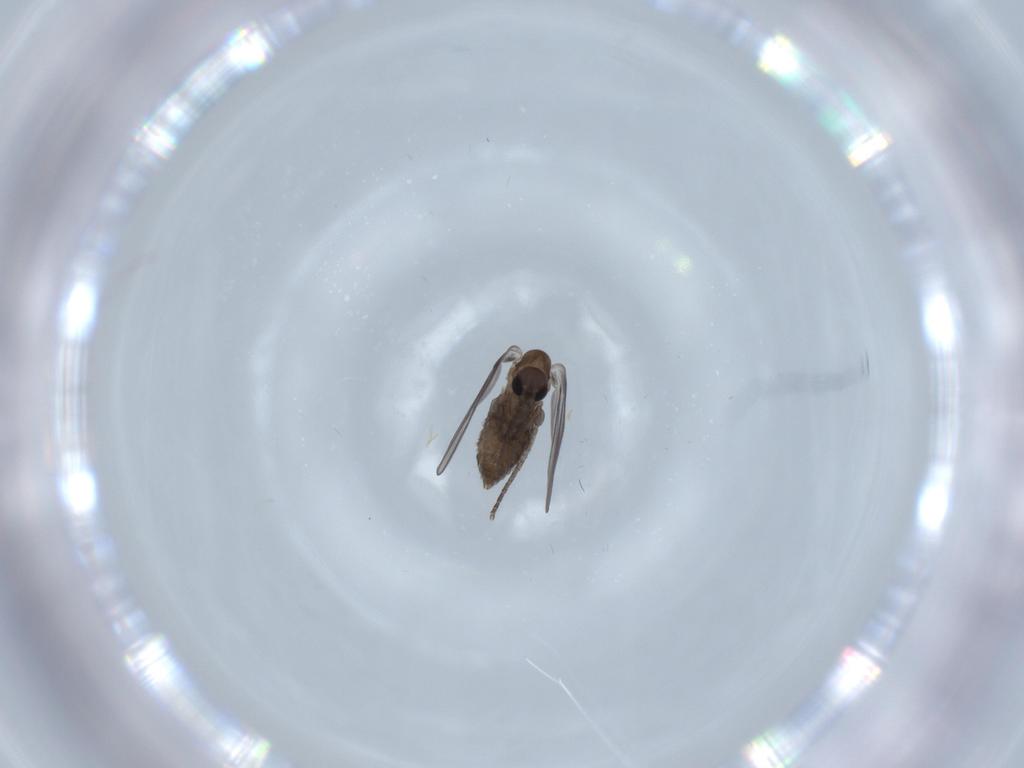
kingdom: Animalia
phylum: Arthropoda
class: Insecta
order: Diptera
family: Psychodidae
